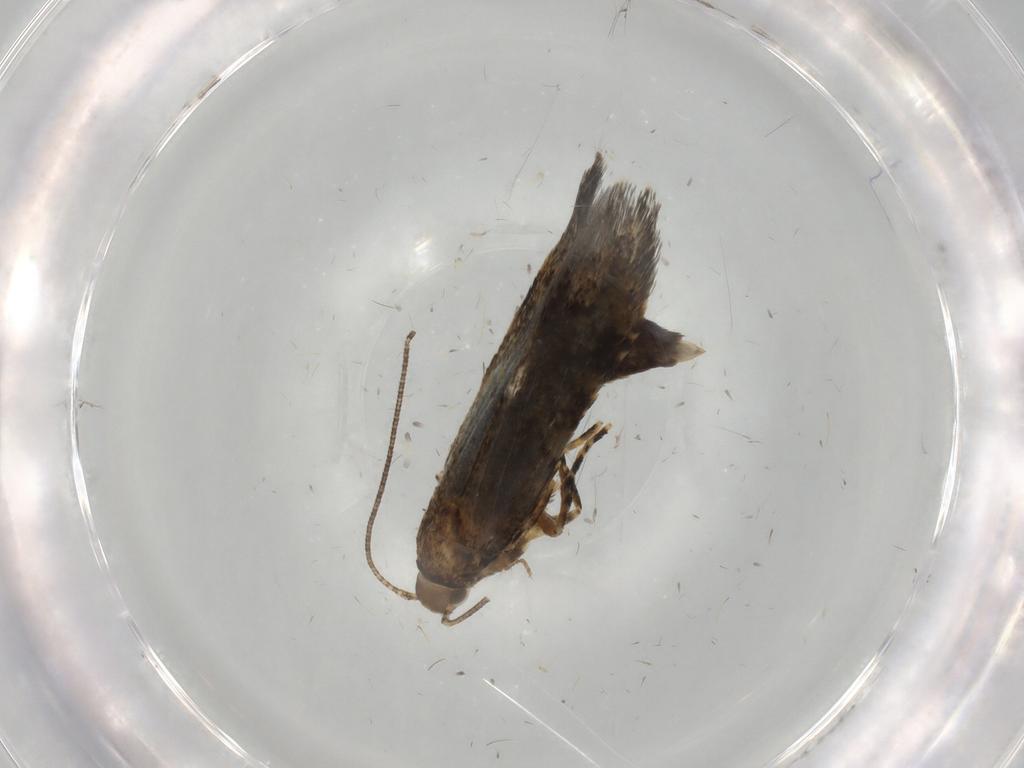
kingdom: Animalia
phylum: Arthropoda
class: Insecta
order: Lepidoptera
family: Oecophoridae
